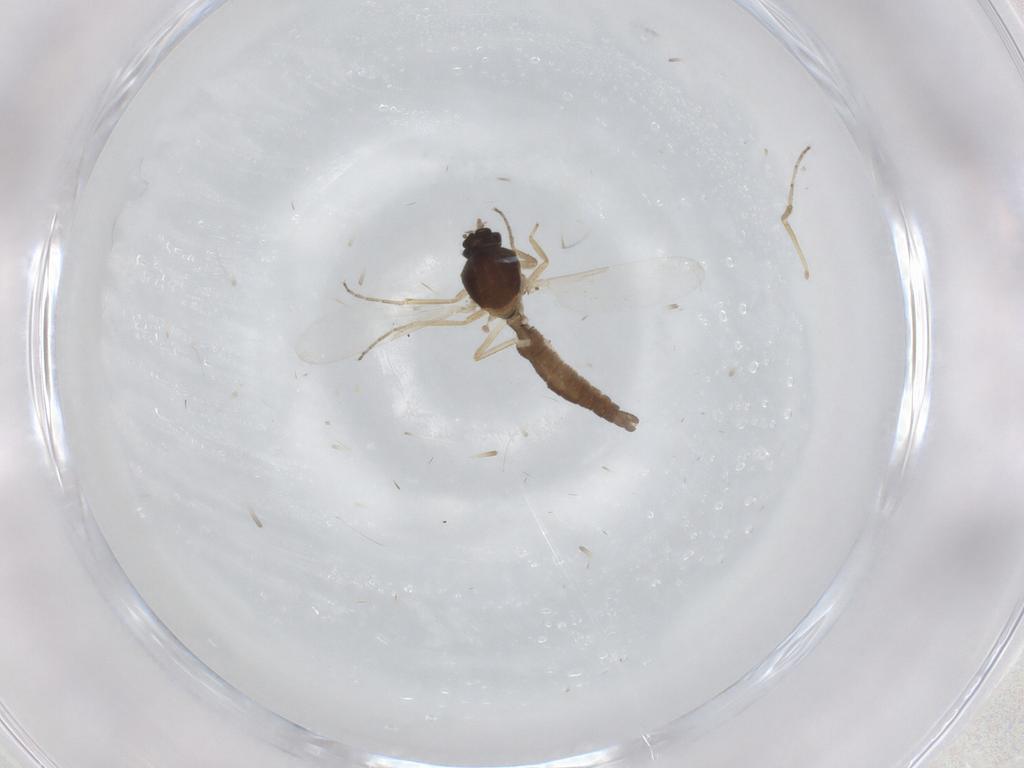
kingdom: Animalia
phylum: Arthropoda
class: Insecta
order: Diptera
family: Ceratopogonidae
